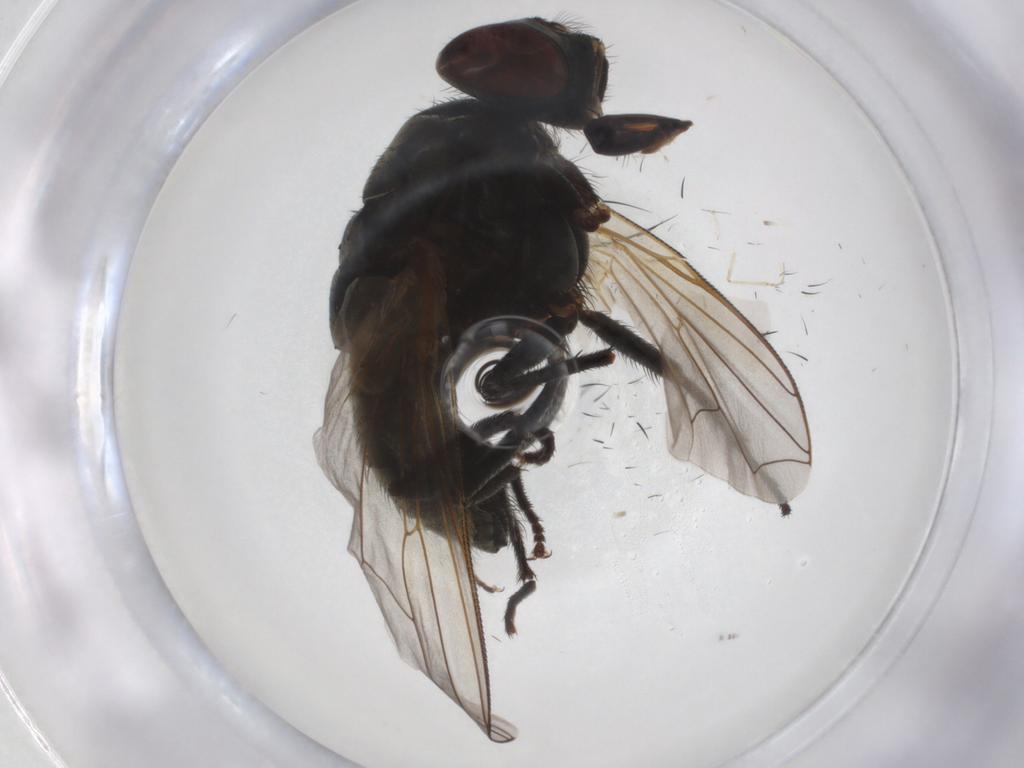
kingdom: Animalia
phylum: Arthropoda
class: Insecta
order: Diptera
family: Muscidae
